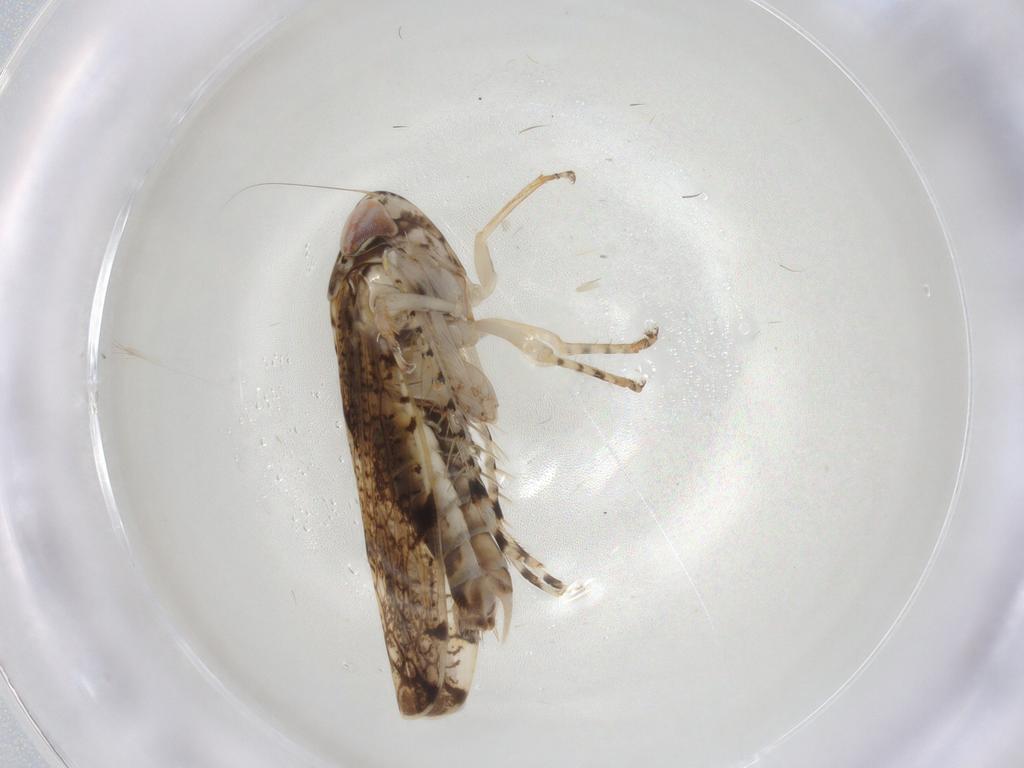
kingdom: Animalia
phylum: Arthropoda
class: Insecta
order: Hemiptera
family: Cicadellidae
